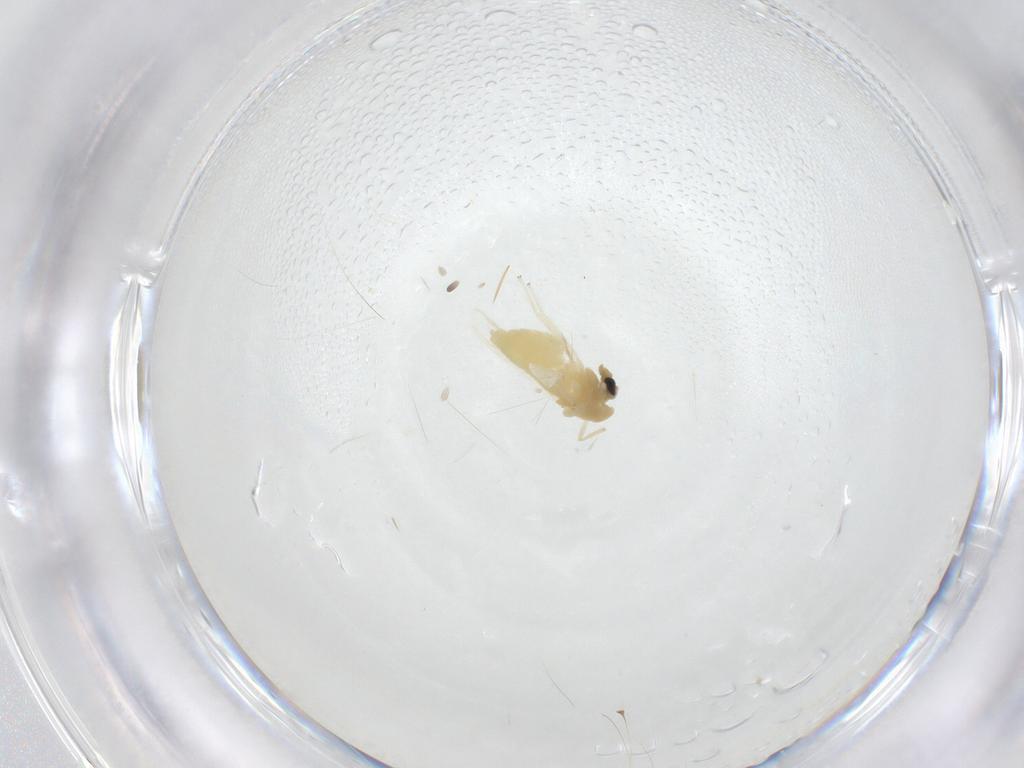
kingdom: Animalia
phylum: Arthropoda
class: Insecta
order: Diptera
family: Chironomidae
